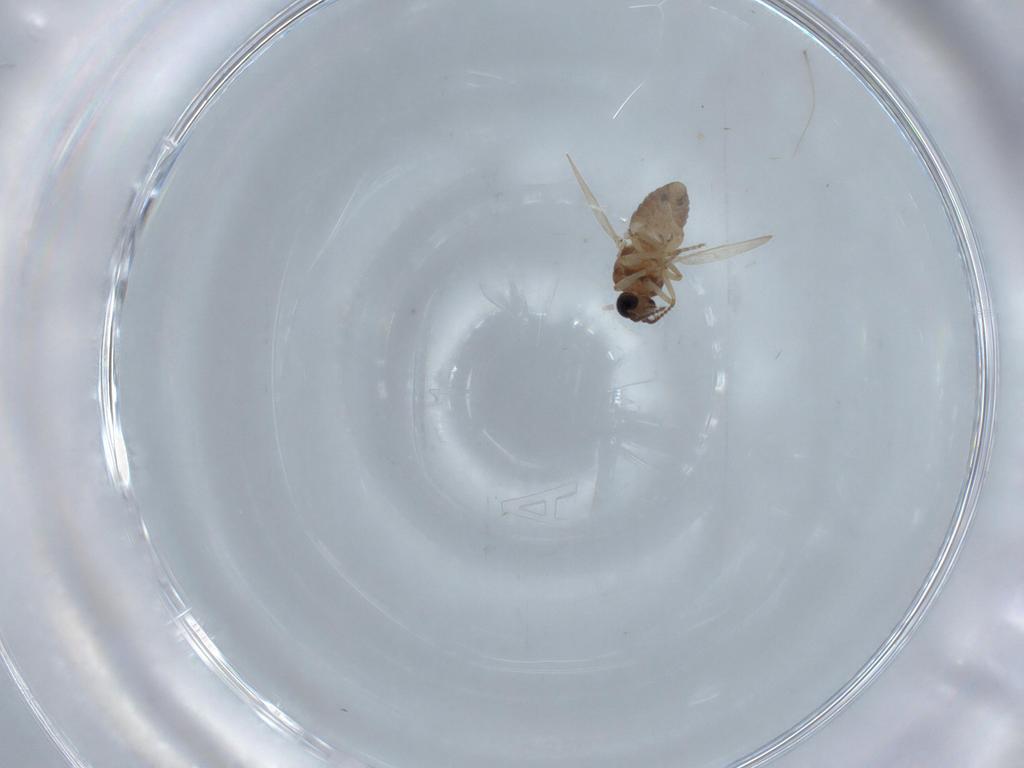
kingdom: Animalia
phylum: Arthropoda
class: Insecta
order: Diptera
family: Ceratopogonidae
